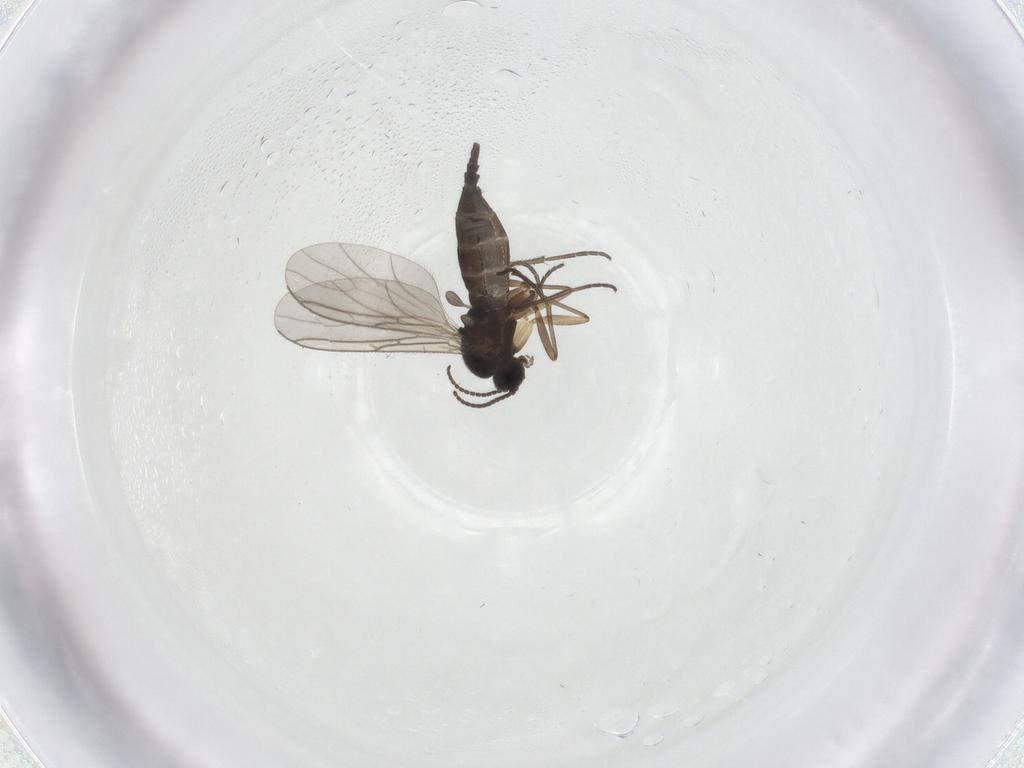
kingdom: Animalia
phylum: Arthropoda
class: Insecta
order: Diptera
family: Sciaridae
